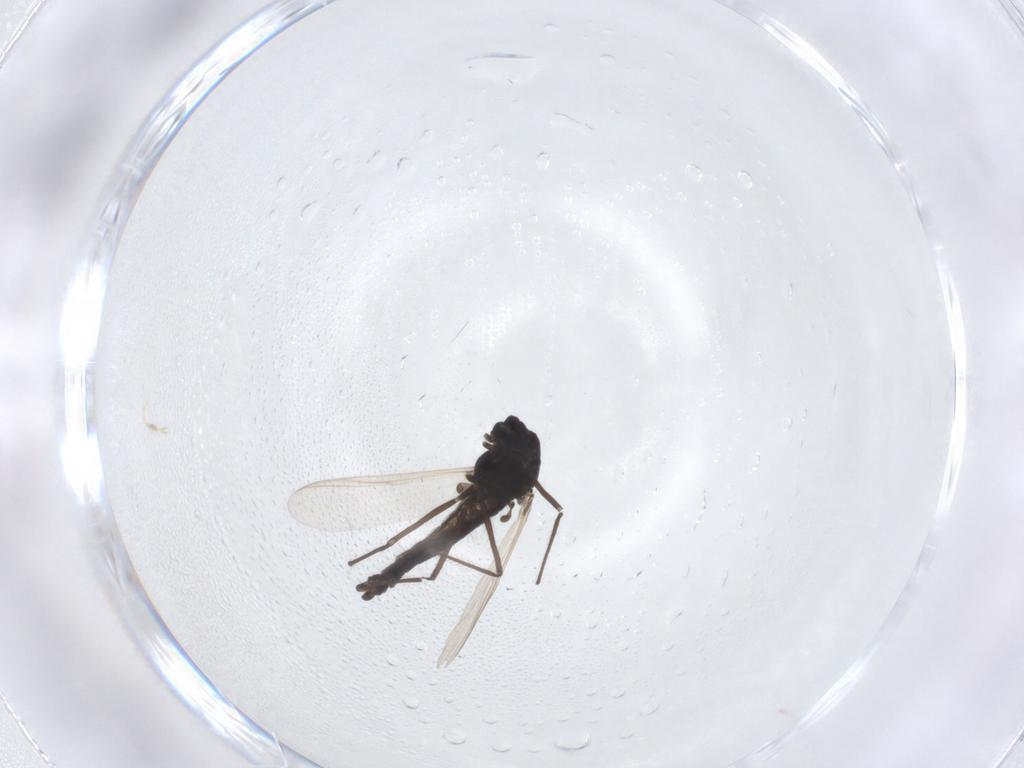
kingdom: Animalia
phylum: Arthropoda
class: Insecta
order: Diptera
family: Chironomidae
